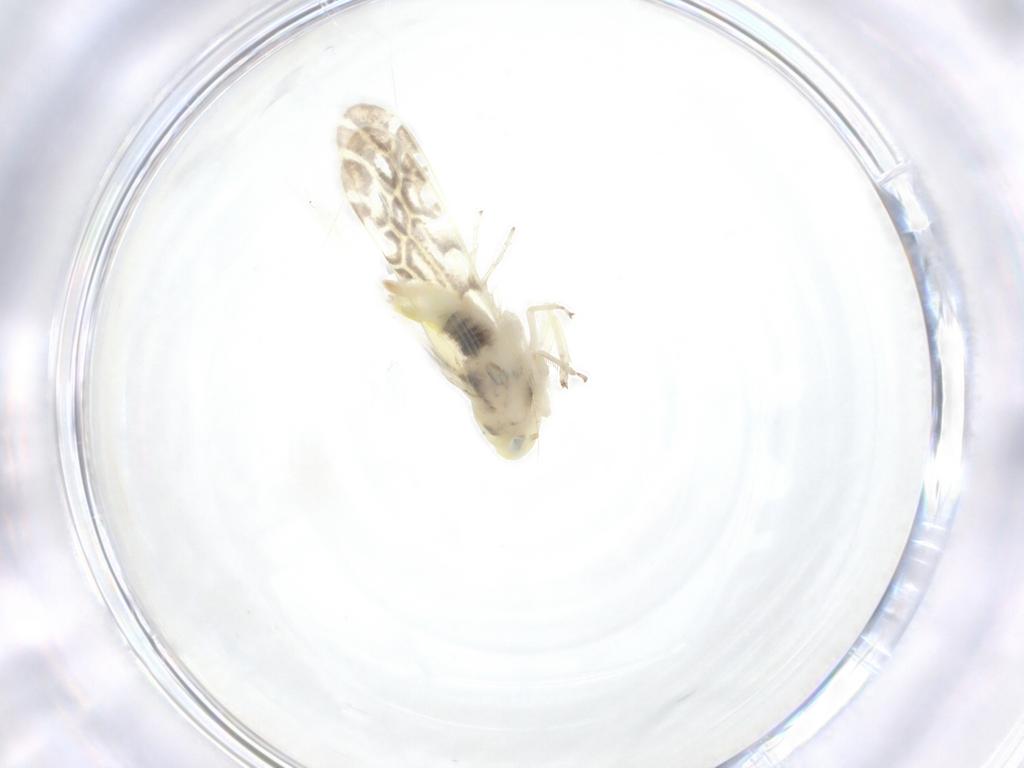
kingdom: Animalia
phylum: Arthropoda
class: Insecta
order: Hemiptera
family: Cicadellidae
